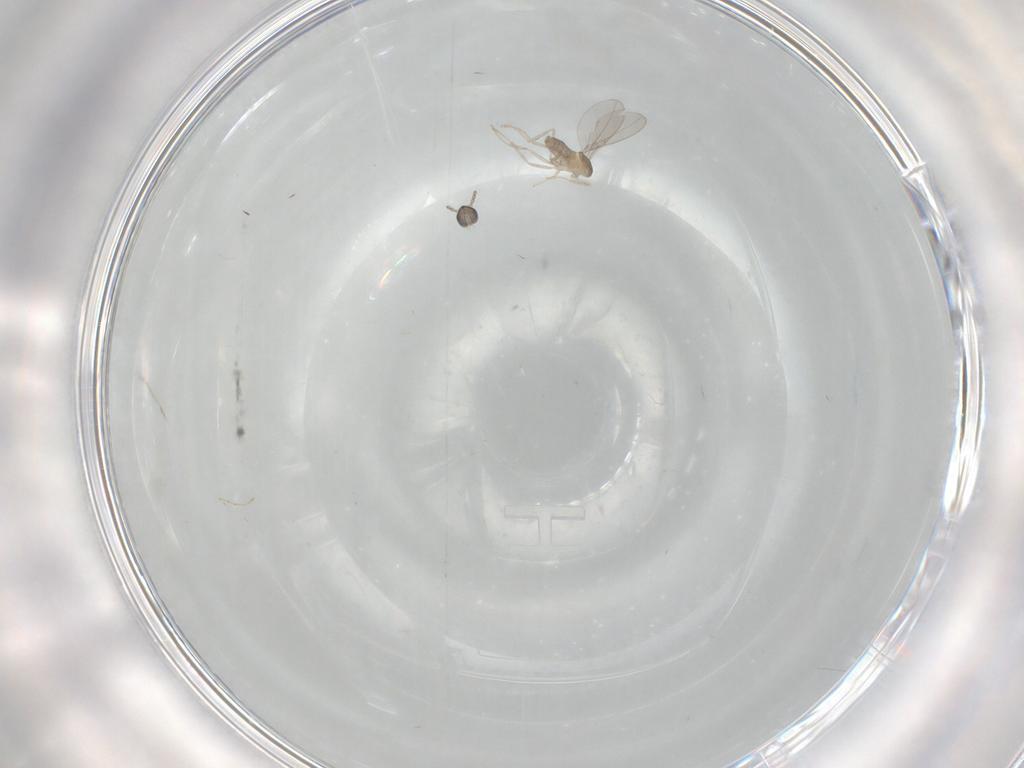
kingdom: Animalia
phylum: Arthropoda
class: Insecta
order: Diptera
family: Cecidomyiidae
